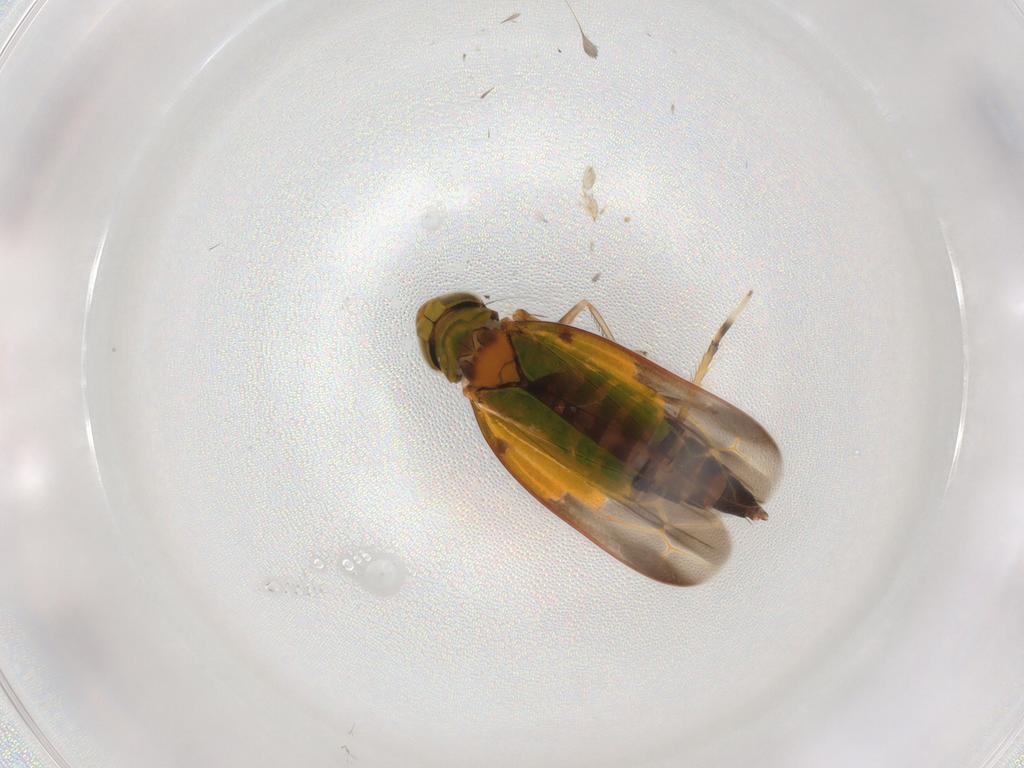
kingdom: Animalia
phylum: Arthropoda
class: Insecta
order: Hemiptera
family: Cicadellidae
